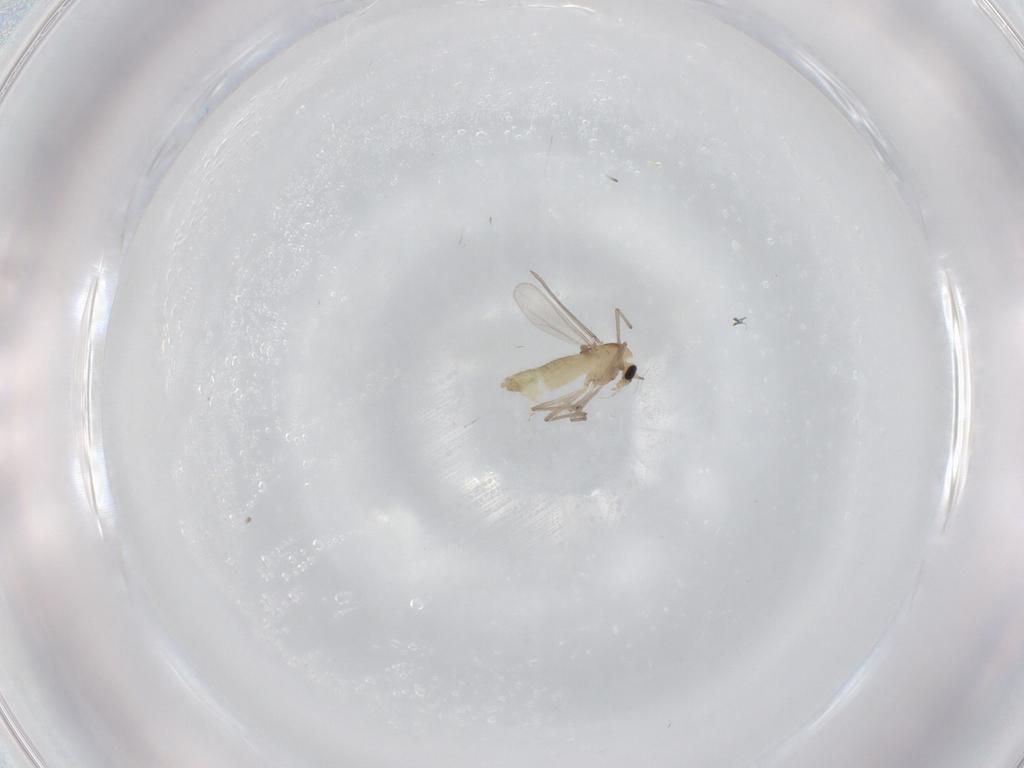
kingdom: Animalia
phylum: Arthropoda
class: Insecta
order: Diptera
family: Chironomidae
